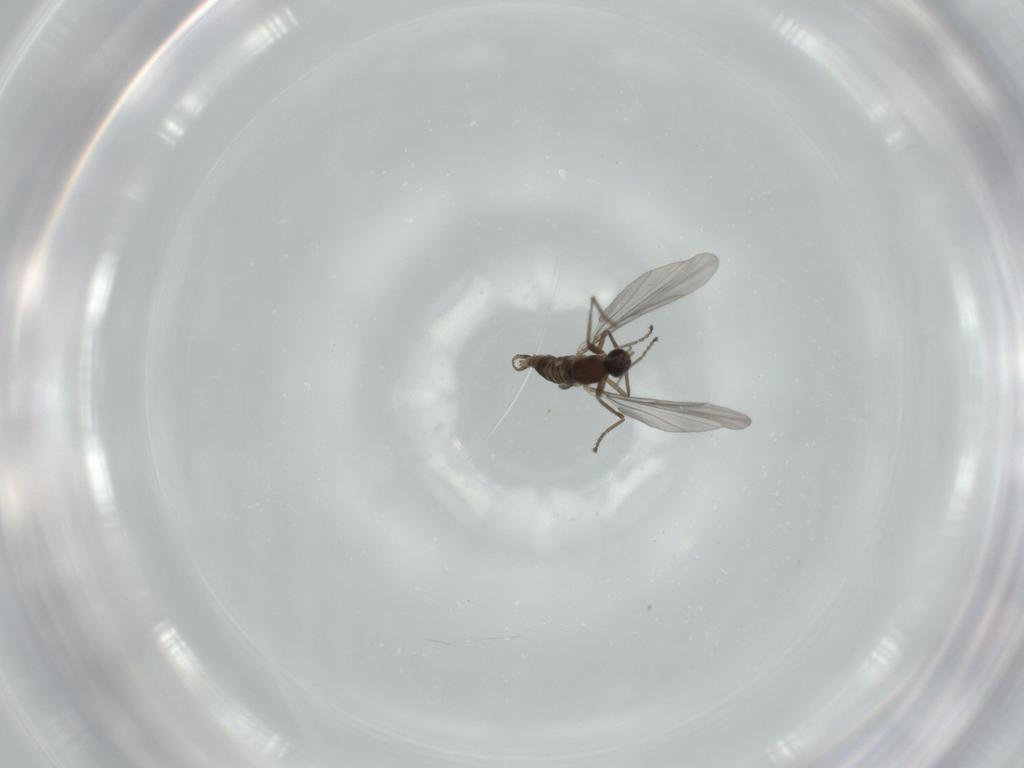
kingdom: Animalia
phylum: Arthropoda
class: Insecta
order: Diptera
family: Cecidomyiidae
